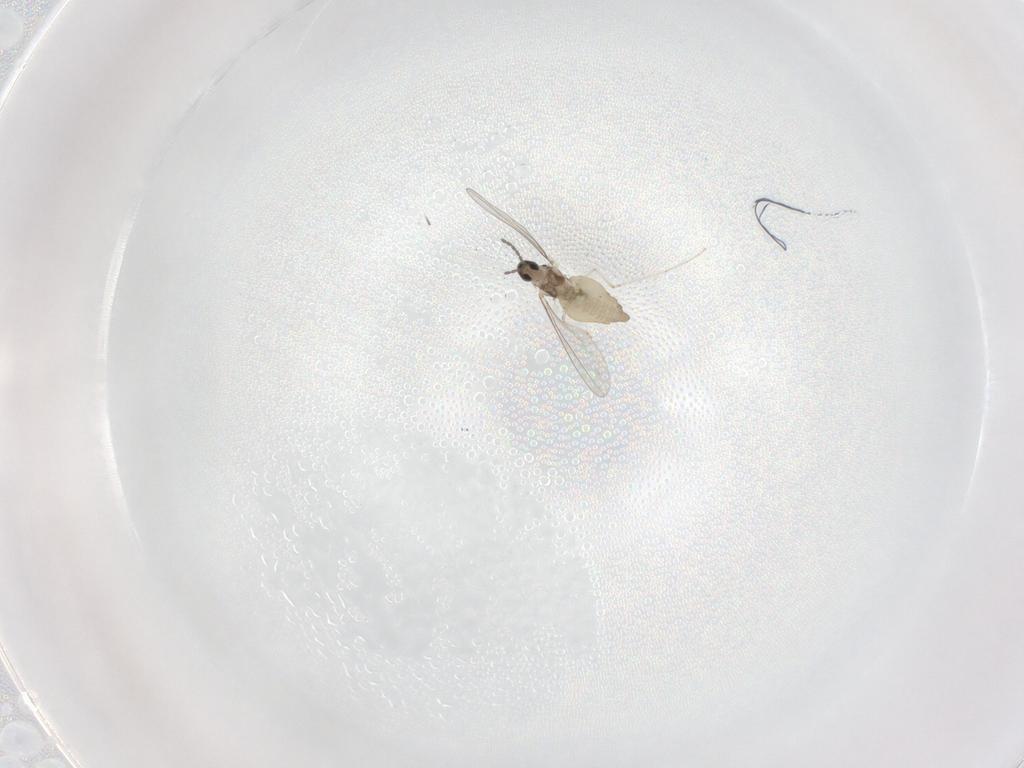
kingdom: Animalia
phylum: Arthropoda
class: Insecta
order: Diptera
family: Cecidomyiidae
